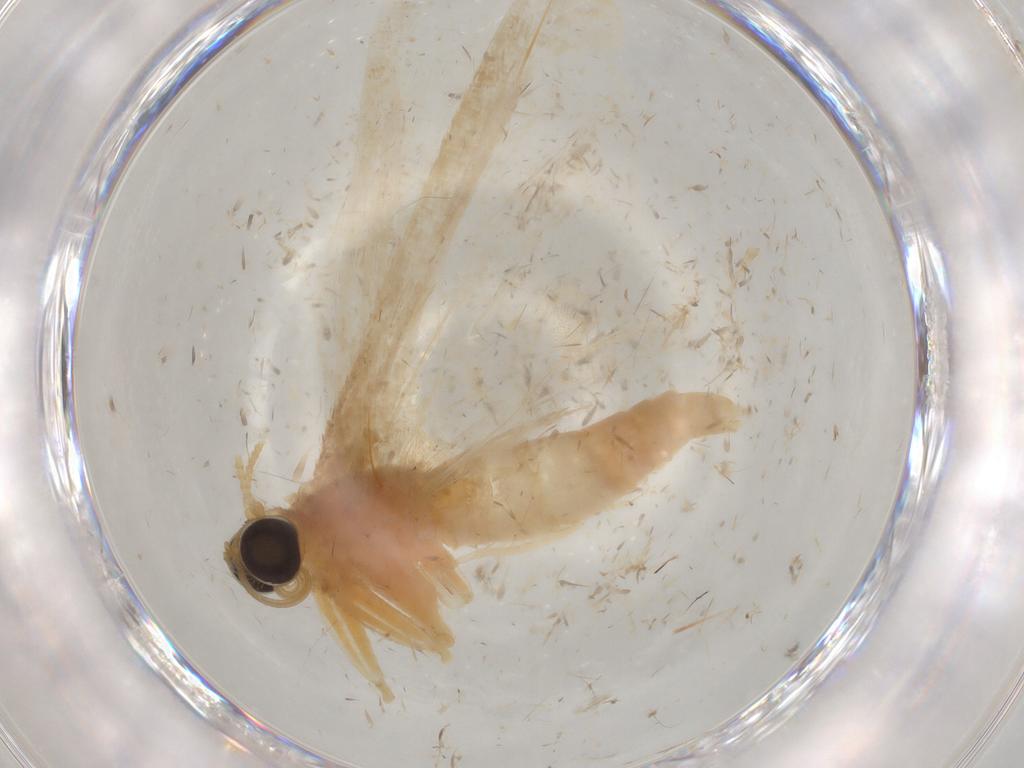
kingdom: Animalia
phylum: Arthropoda
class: Insecta
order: Lepidoptera
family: Geometridae
